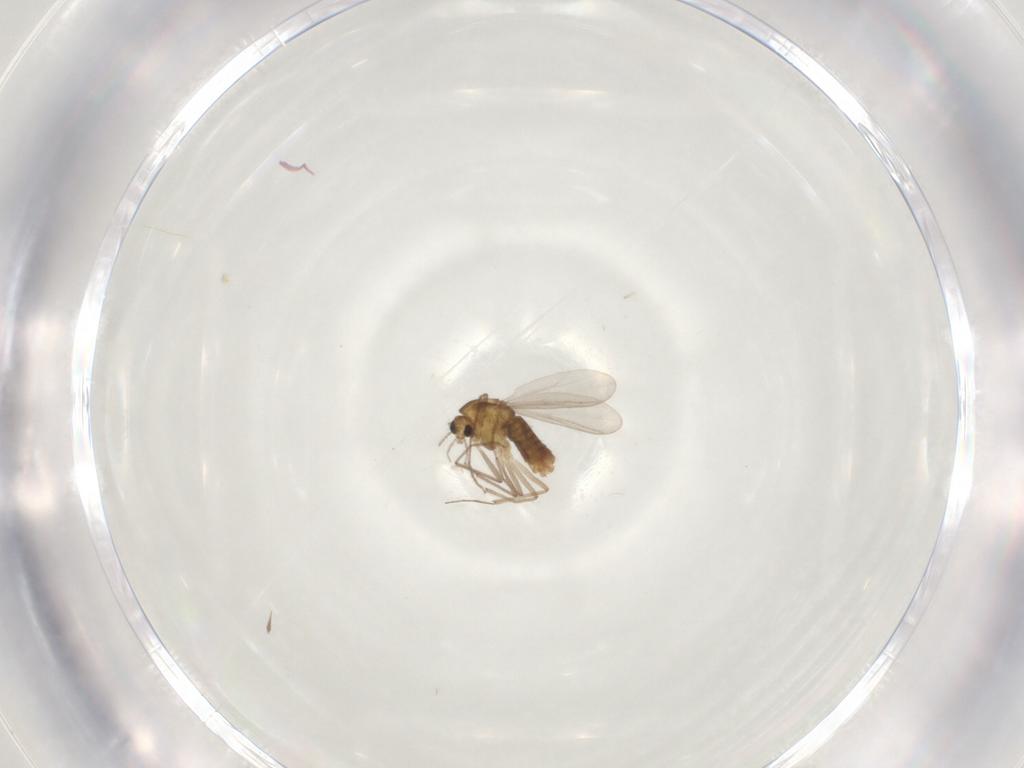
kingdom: Animalia
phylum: Arthropoda
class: Insecta
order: Diptera
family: Chironomidae
